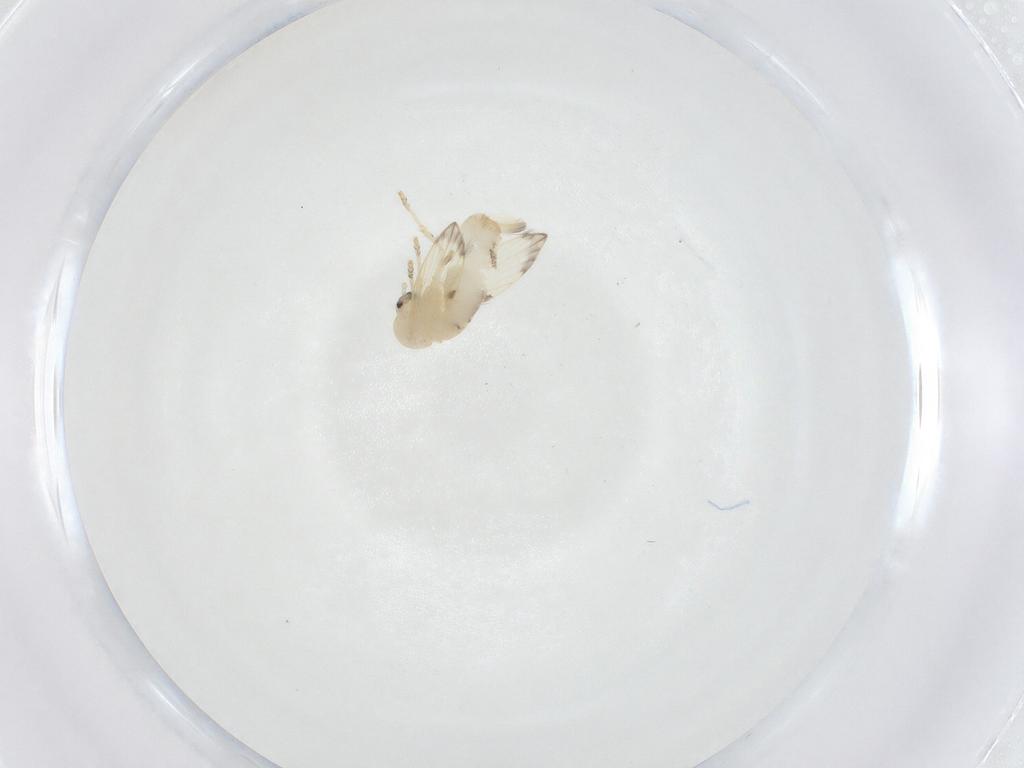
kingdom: Animalia
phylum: Arthropoda
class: Insecta
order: Diptera
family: Psychodidae
